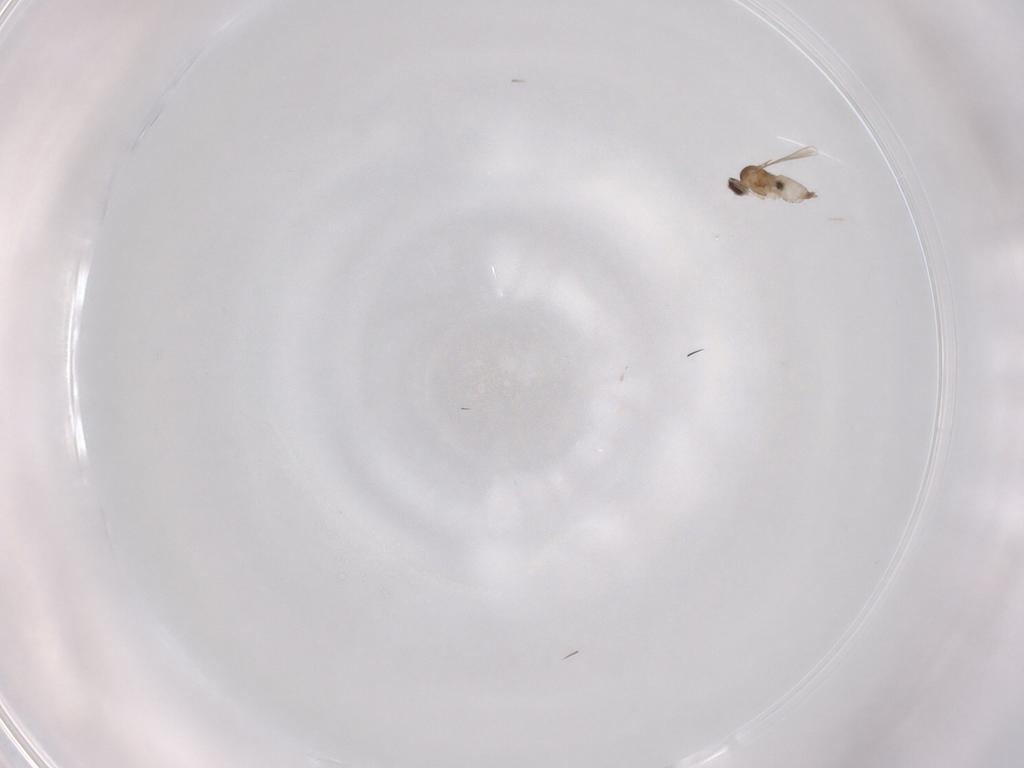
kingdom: Animalia
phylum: Arthropoda
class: Insecta
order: Diptera
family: Cecidomyiidae
